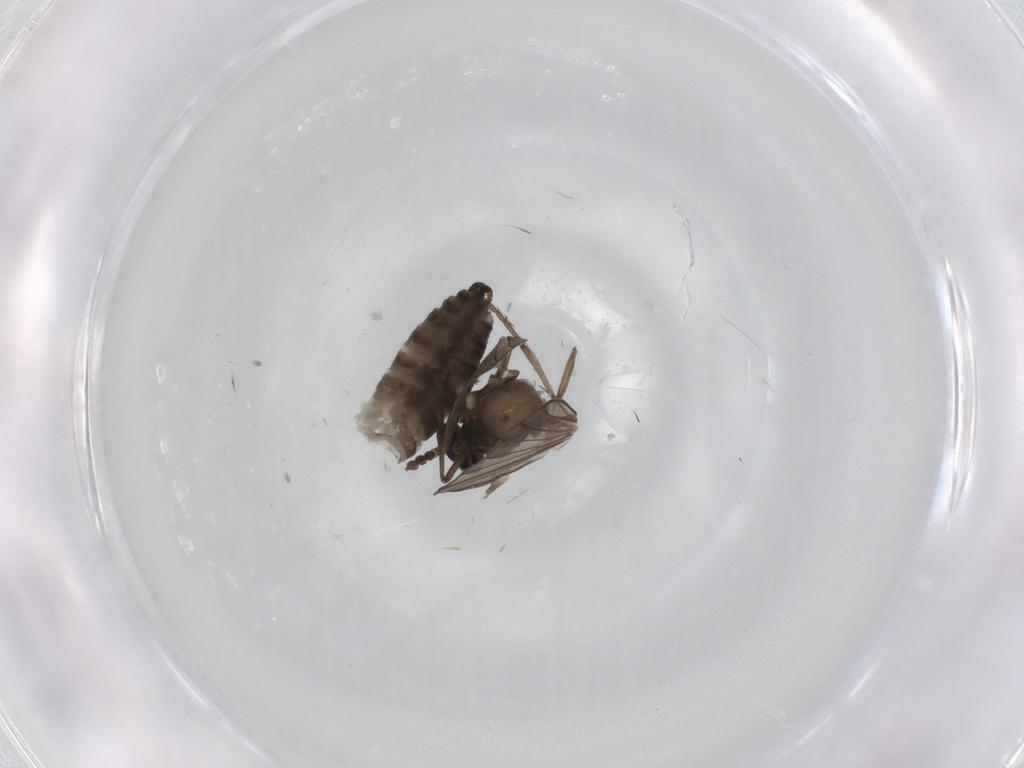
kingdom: Animalia
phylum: Arthropoda
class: Insecta
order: Diptera
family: Psychodidae
